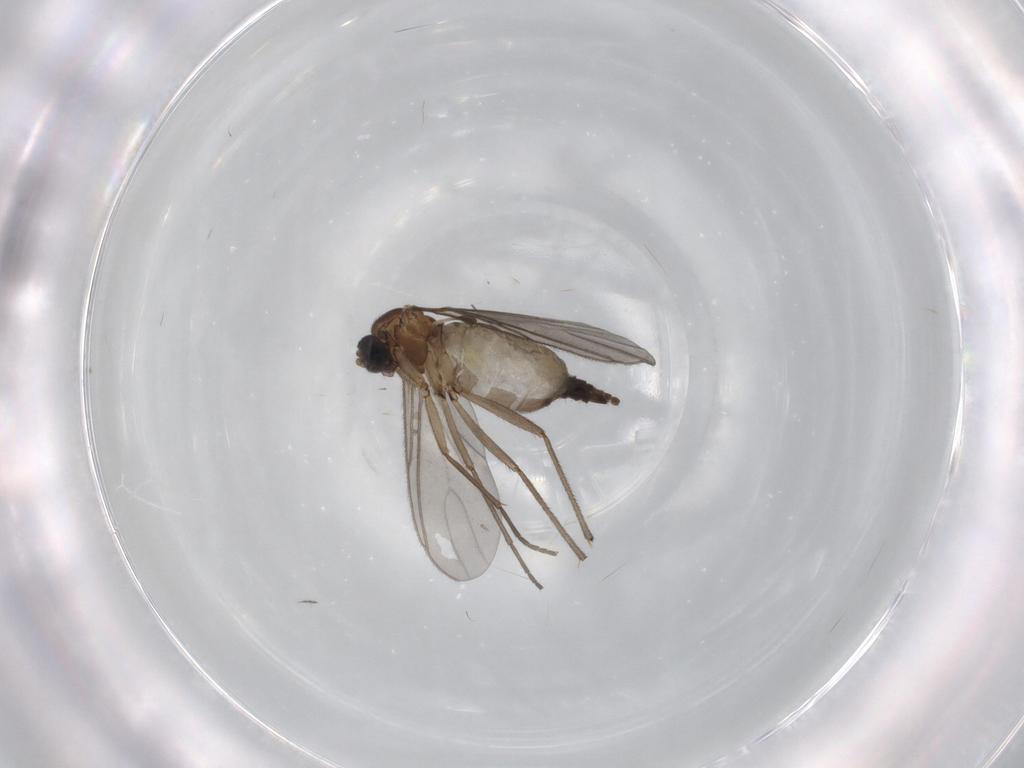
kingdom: Animalia
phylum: Arthropoda
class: Insecta
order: Diptera
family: Sciaridae
